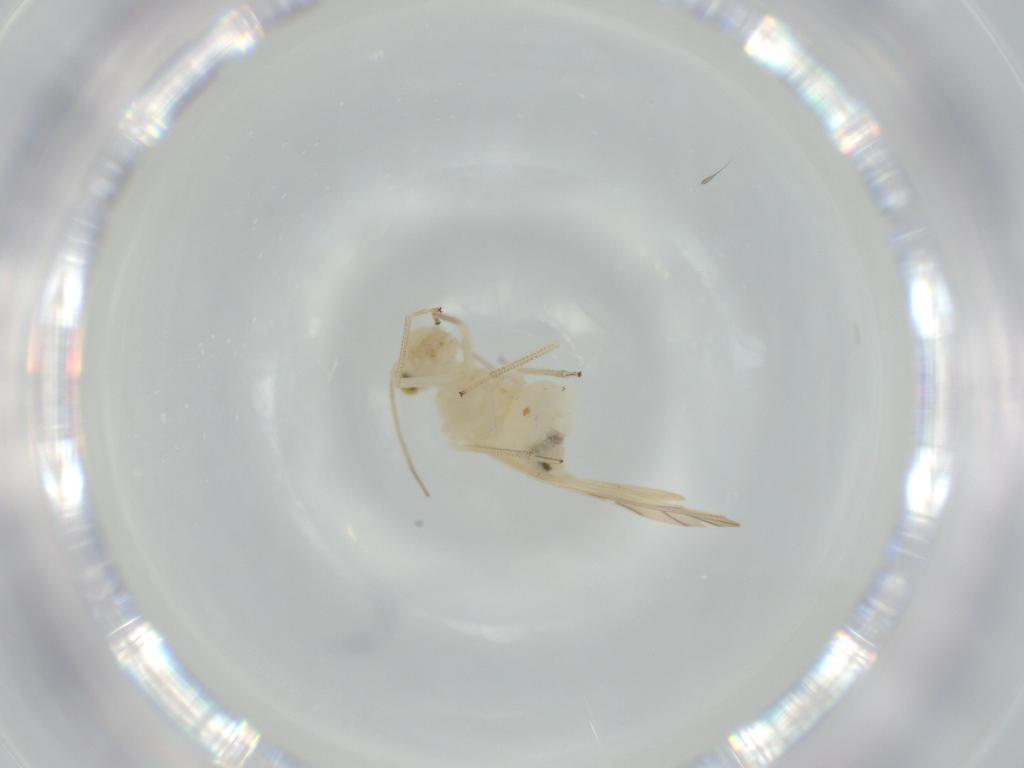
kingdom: Animalia
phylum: Arthropoda
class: Insecta
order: Psocodea
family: Caeciliusidae
